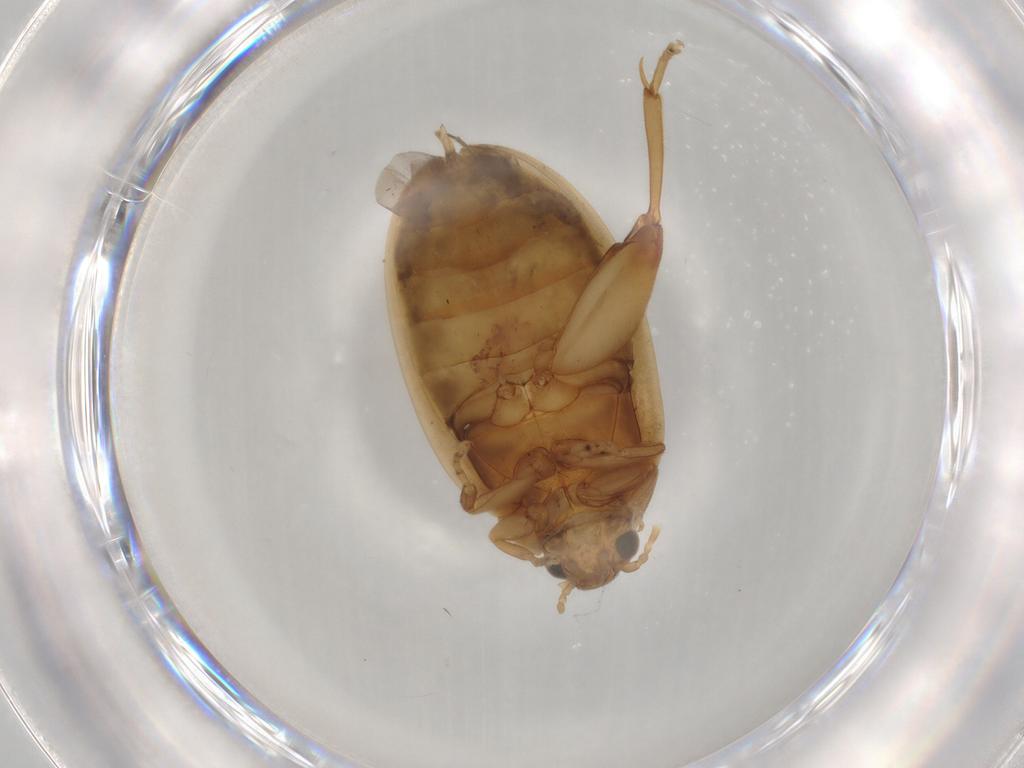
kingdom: Animalia
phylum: Arthropoda
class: Insecta
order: Coleoptera
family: Scirtidae
